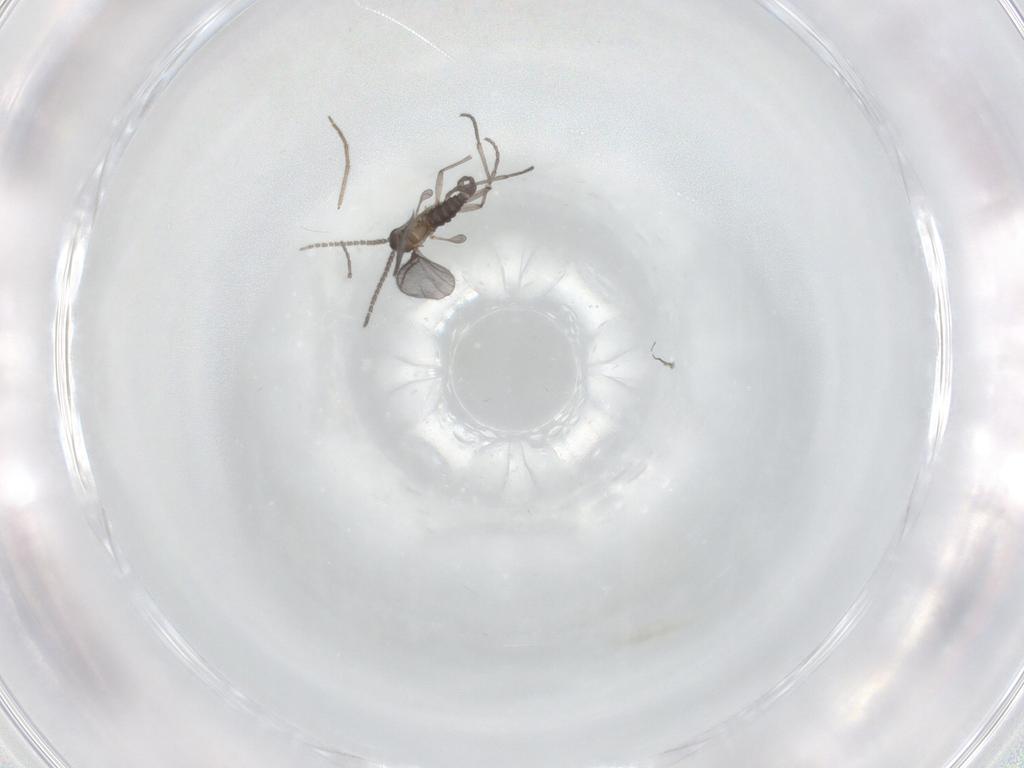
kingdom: Animalia
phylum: Arthropoda
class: Insecta
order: Diptera
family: Sciaridae
